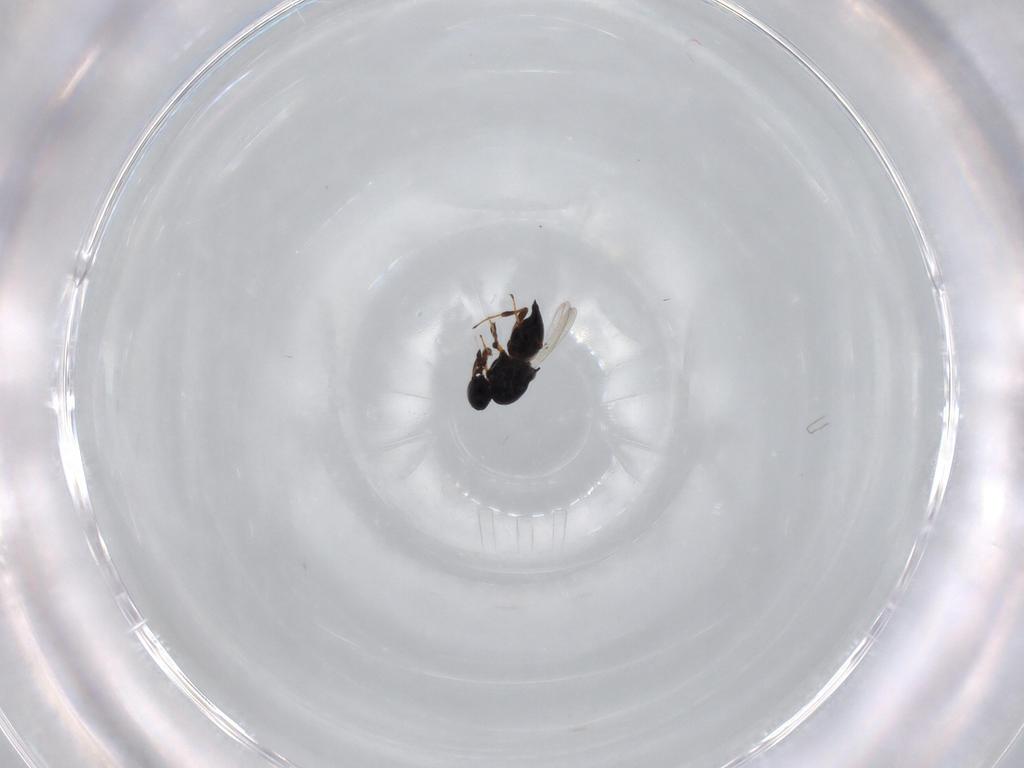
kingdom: Animalia
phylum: Arthropoda
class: Insecta
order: Hymenoptera
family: Platygastridae
